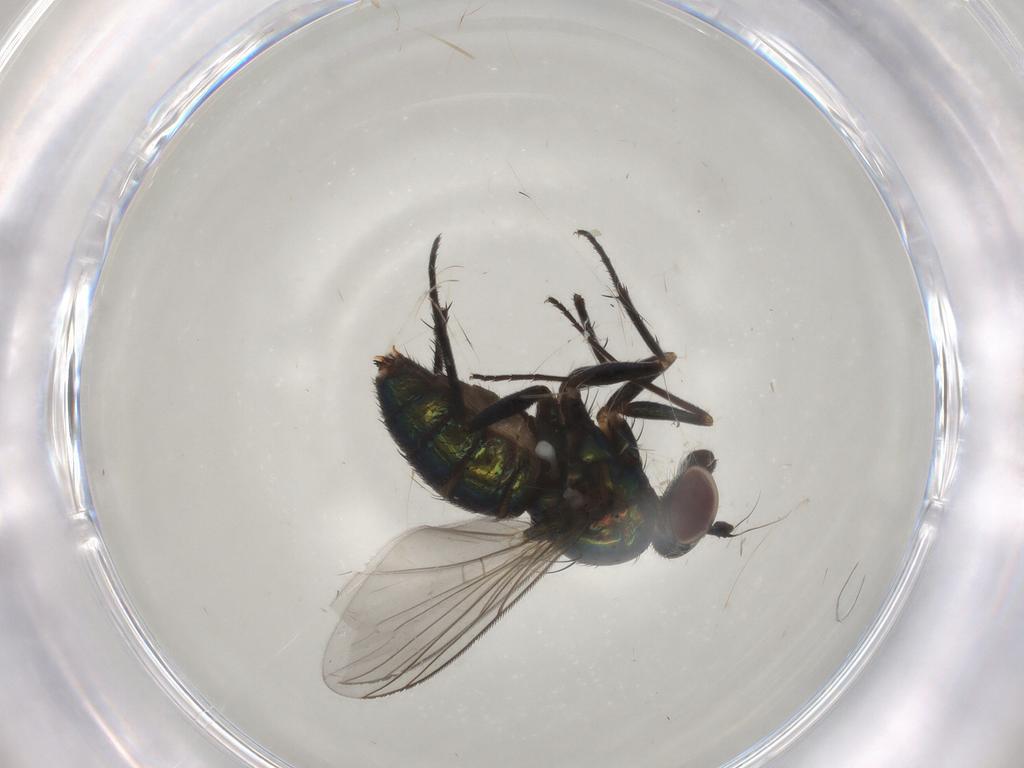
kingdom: Animalia
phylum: Arthropoda
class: Insecta
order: Diptera
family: Dolichopodidae
